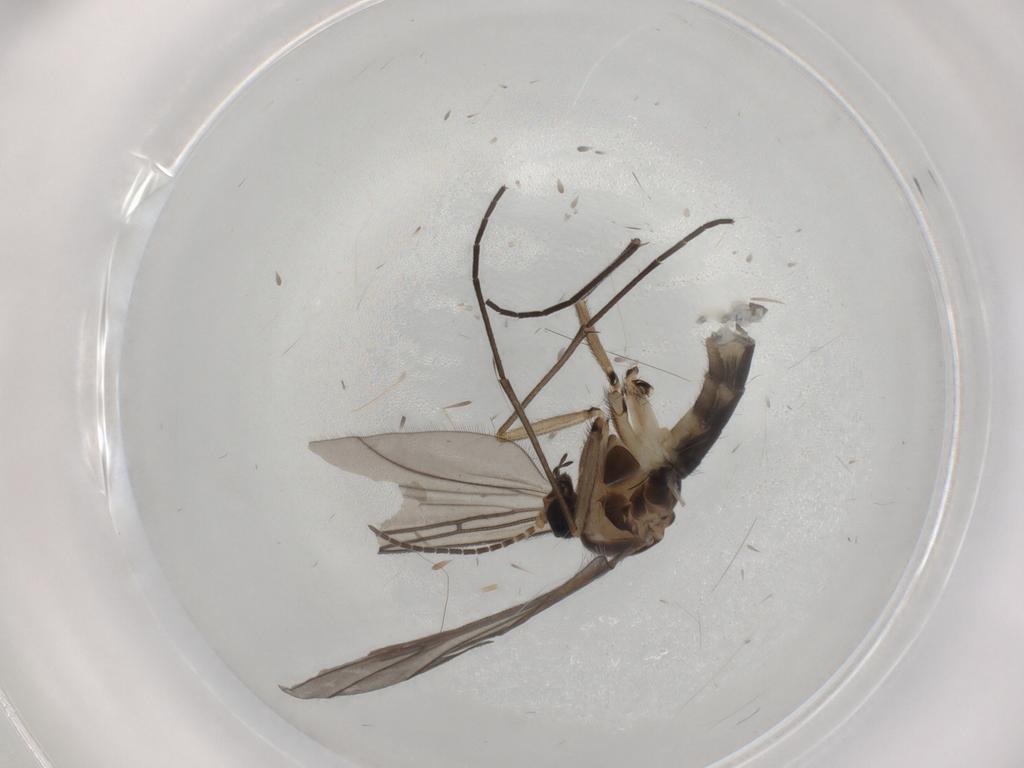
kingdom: Animalia
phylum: Arthropoda
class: Insecta
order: Diptera
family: Sciaridae
